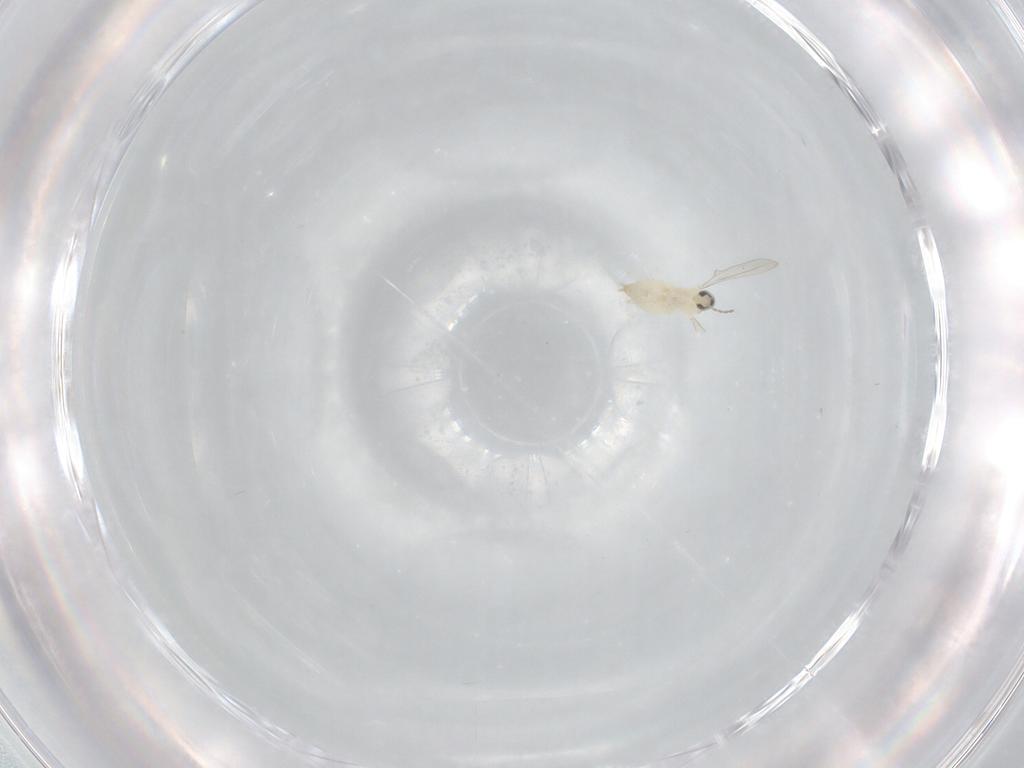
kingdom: Animalia
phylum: Arthropoda
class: Insecta
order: Diptera
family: Cecidomyiidae
